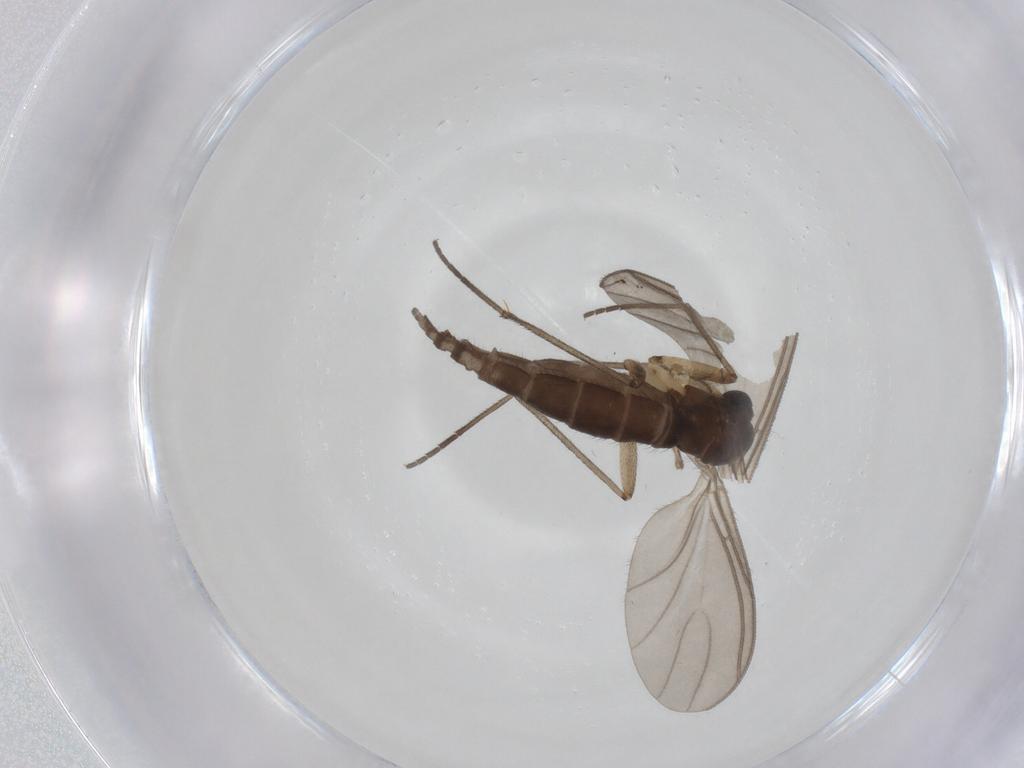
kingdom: Animalia
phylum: Arthropoda
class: Insecta
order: Diptera
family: Sciaridae
